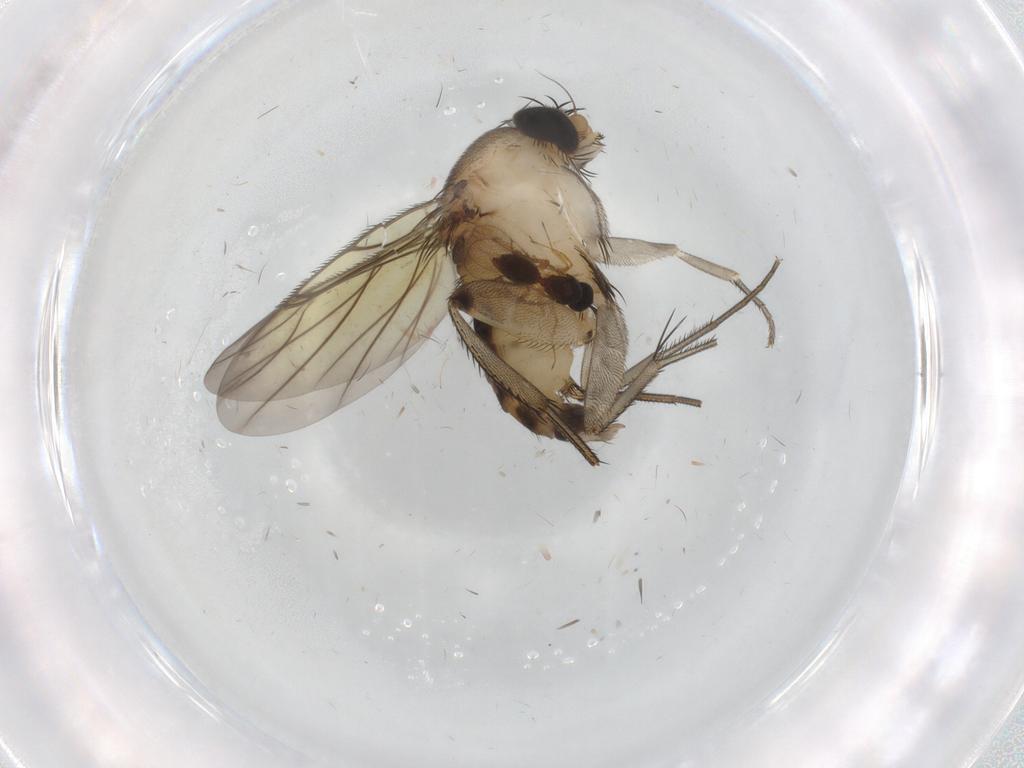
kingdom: Animalia
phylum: Arthropoda
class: Insecta
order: Diptera
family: Phoridae
